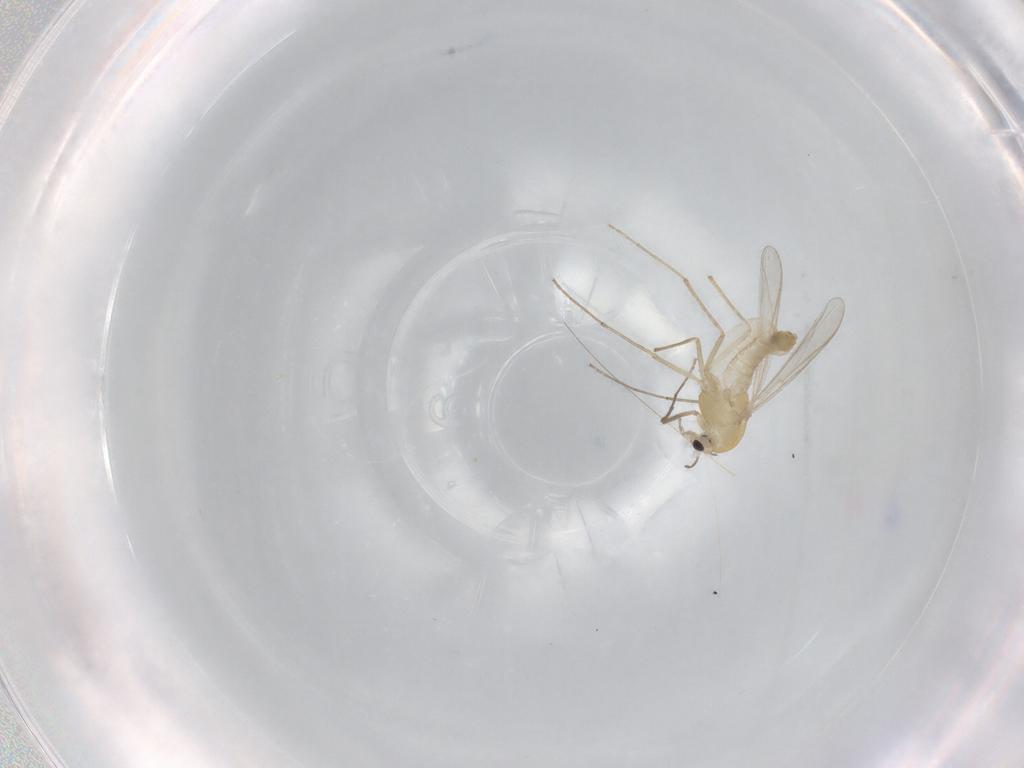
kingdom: Animalia
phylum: Arthropoda
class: Insecta
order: Diptera
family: Chironomidae
